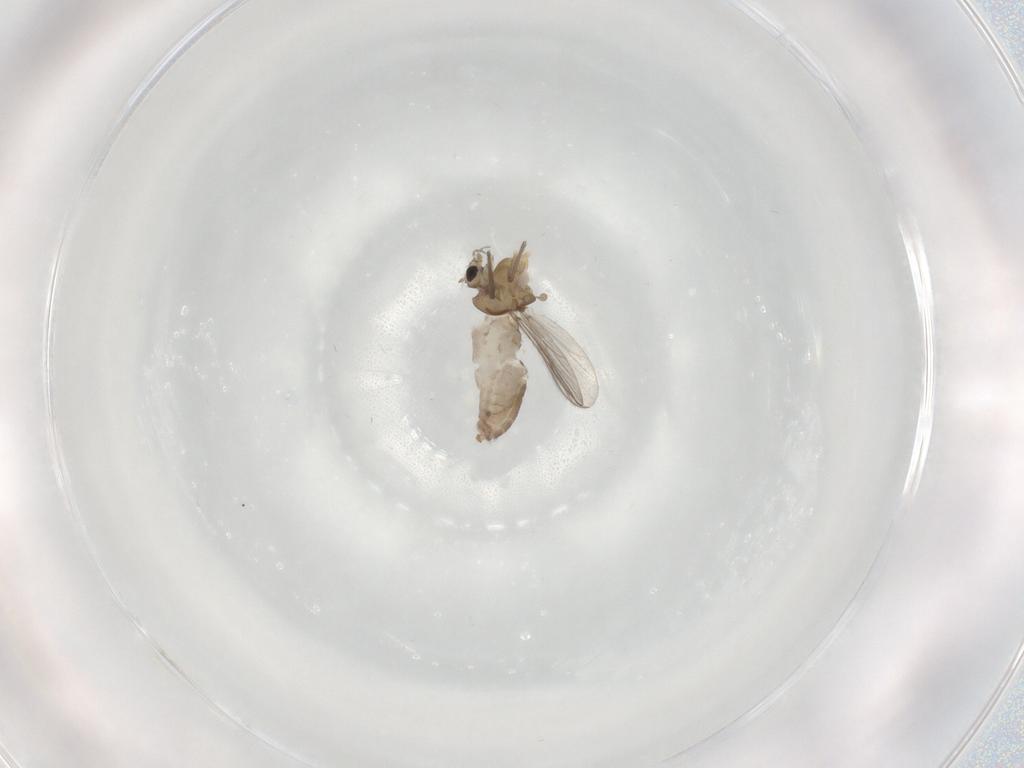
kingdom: Animalia
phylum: Arthropoda
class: Insecta
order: Diptera
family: Chironomidae
